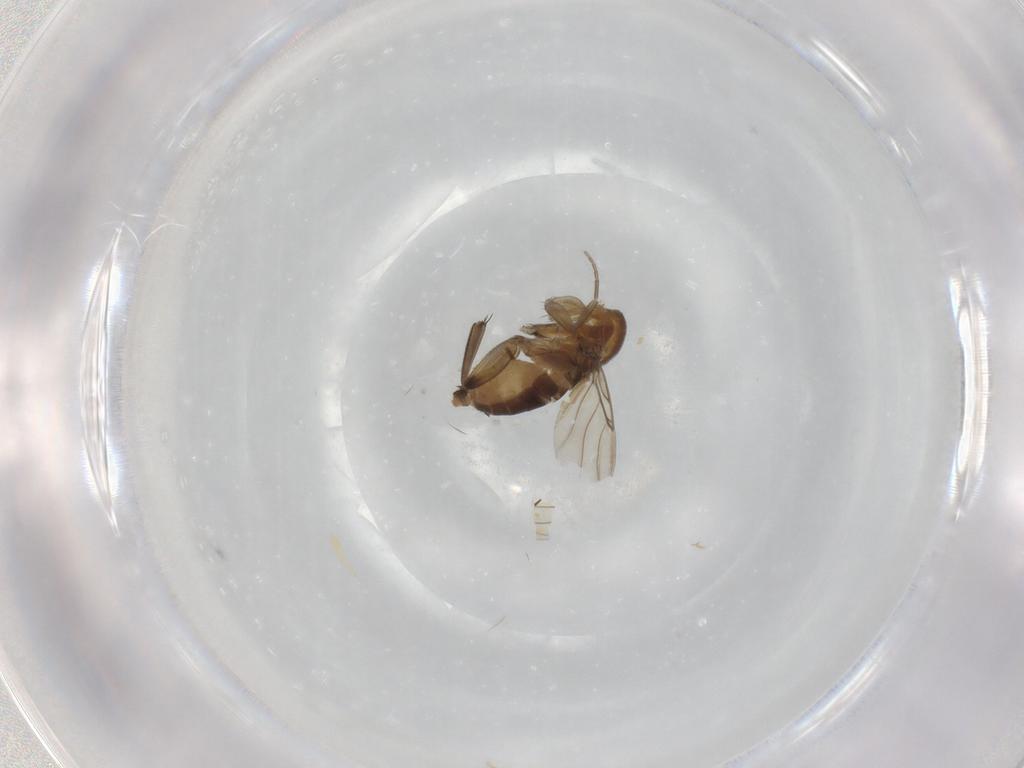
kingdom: Animalia
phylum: Arthropoda
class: Insecta
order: Diptera
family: Phoridae
